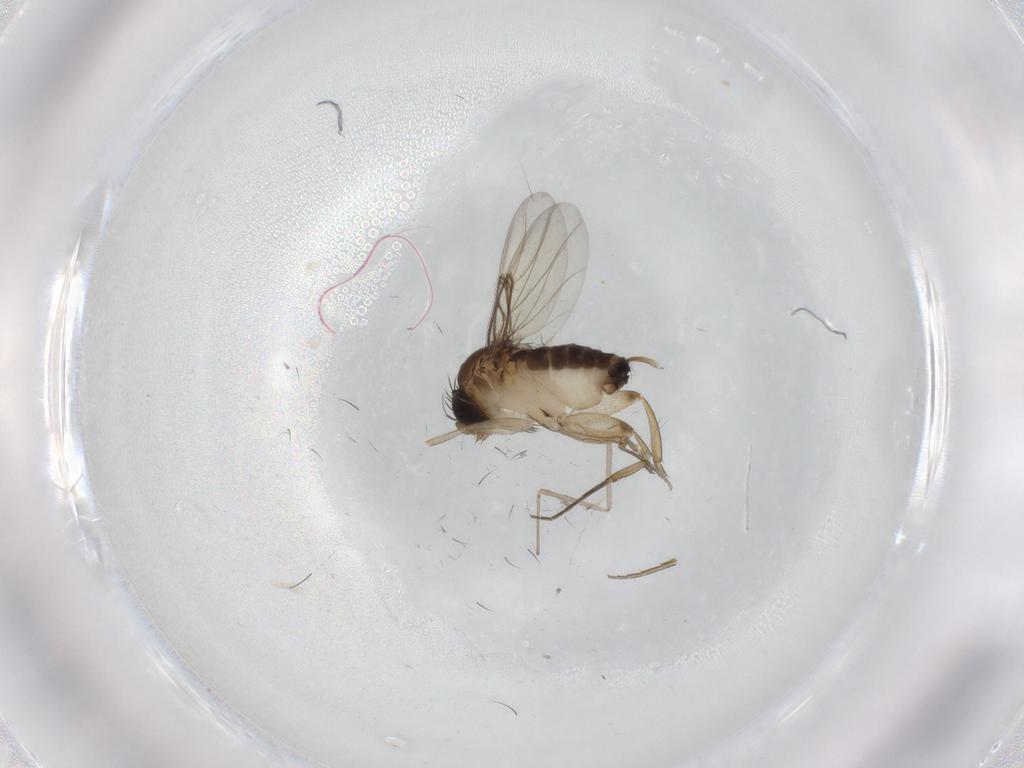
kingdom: Animalia
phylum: Arthropoda
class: Insecta
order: Diptera
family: Phoridae
